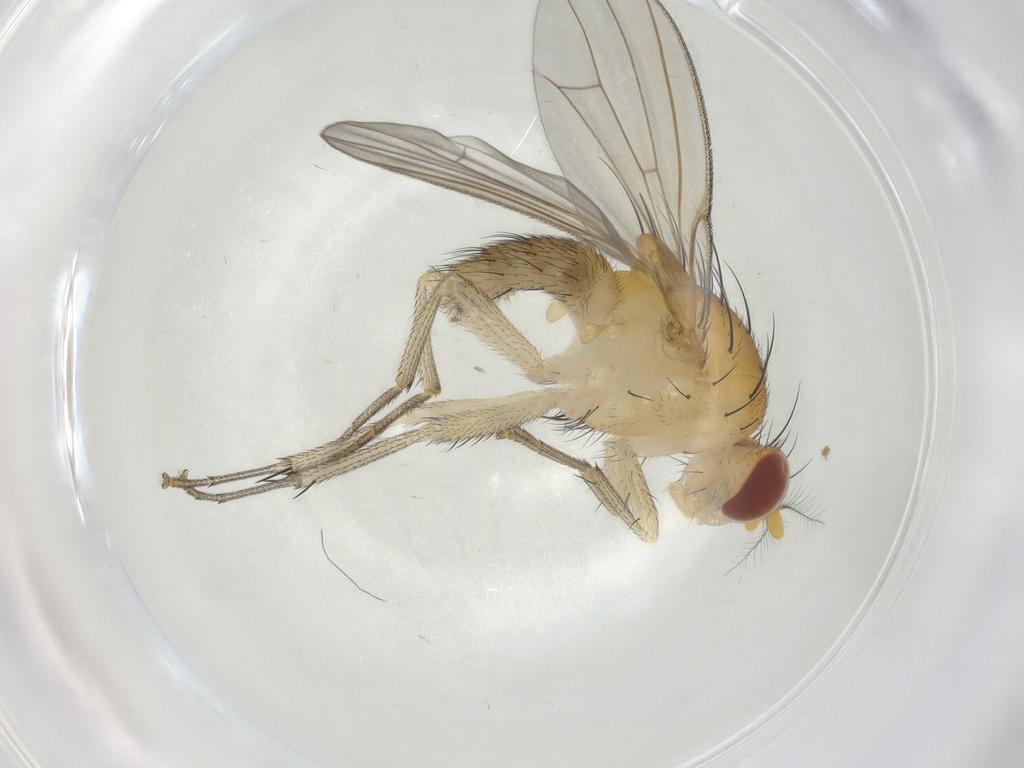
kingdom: Animalia
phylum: Arthropoda
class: Insecta
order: Diptera
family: Cecidomyiidae
